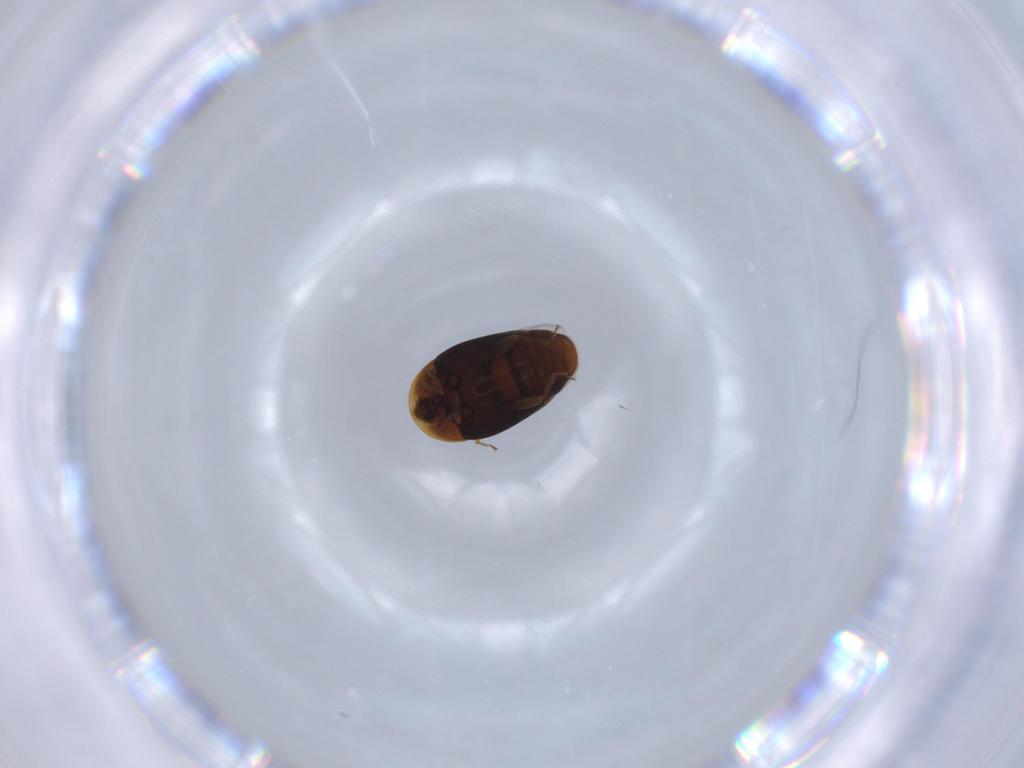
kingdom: Animalia
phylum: Arthropoda
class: Insecta
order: Coleoptera
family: Corylophidae
